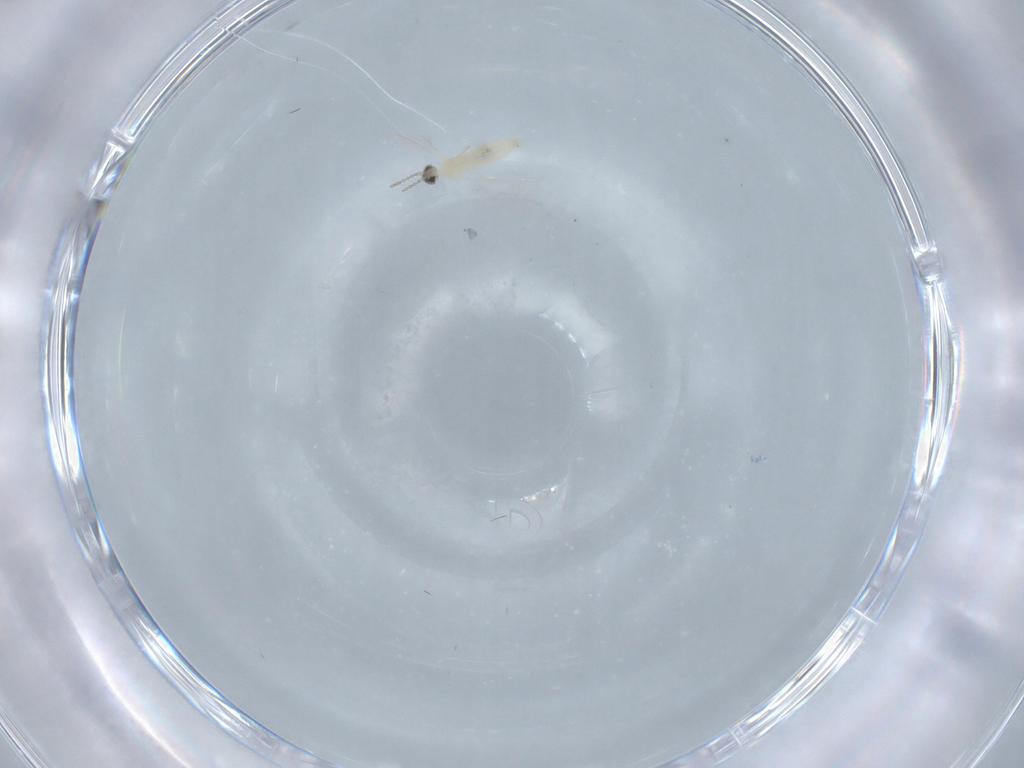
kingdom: Animalia
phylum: Arthropoda
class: Insecta
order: Diptera
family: Cecidomyiidae
